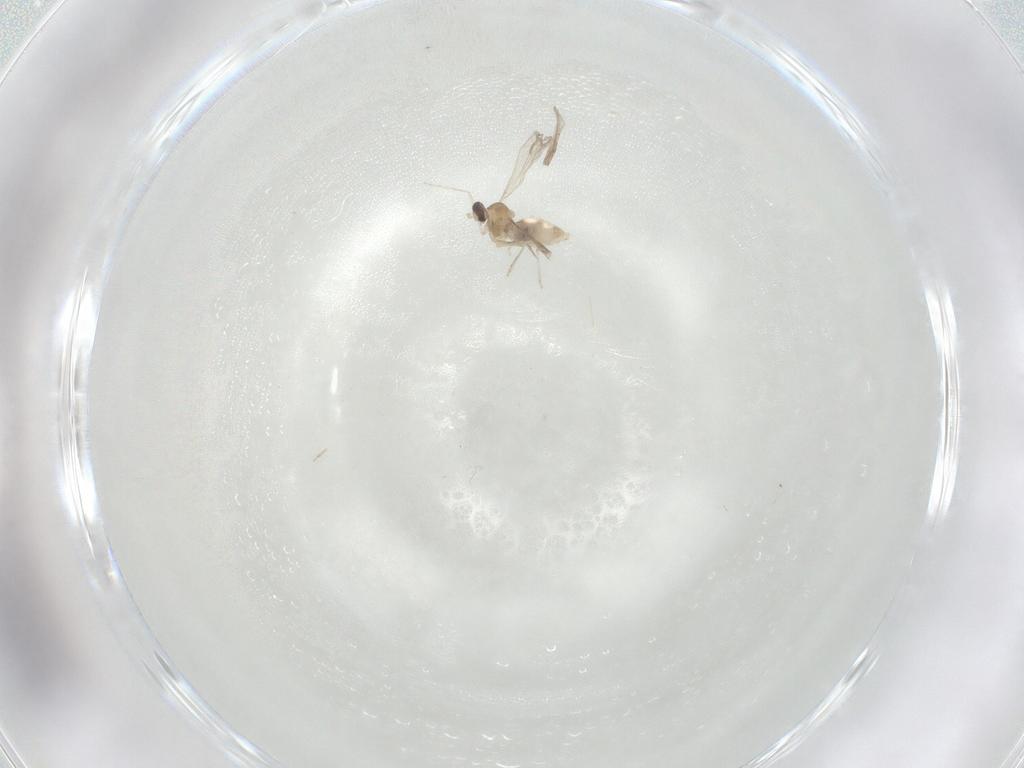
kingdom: Animalia
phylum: Arthropoda
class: Insecta
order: Diptera
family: Cecidomyiidae
